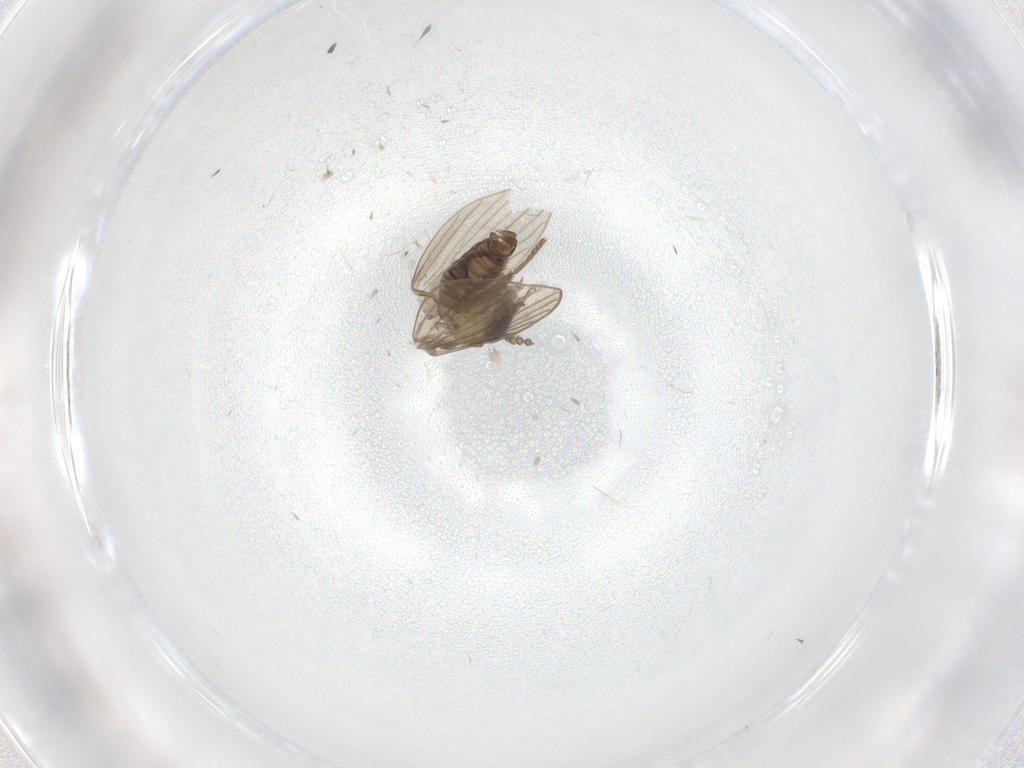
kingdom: Animalia
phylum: Arthropoda
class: Insecta
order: Diptera
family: Psychodidae
